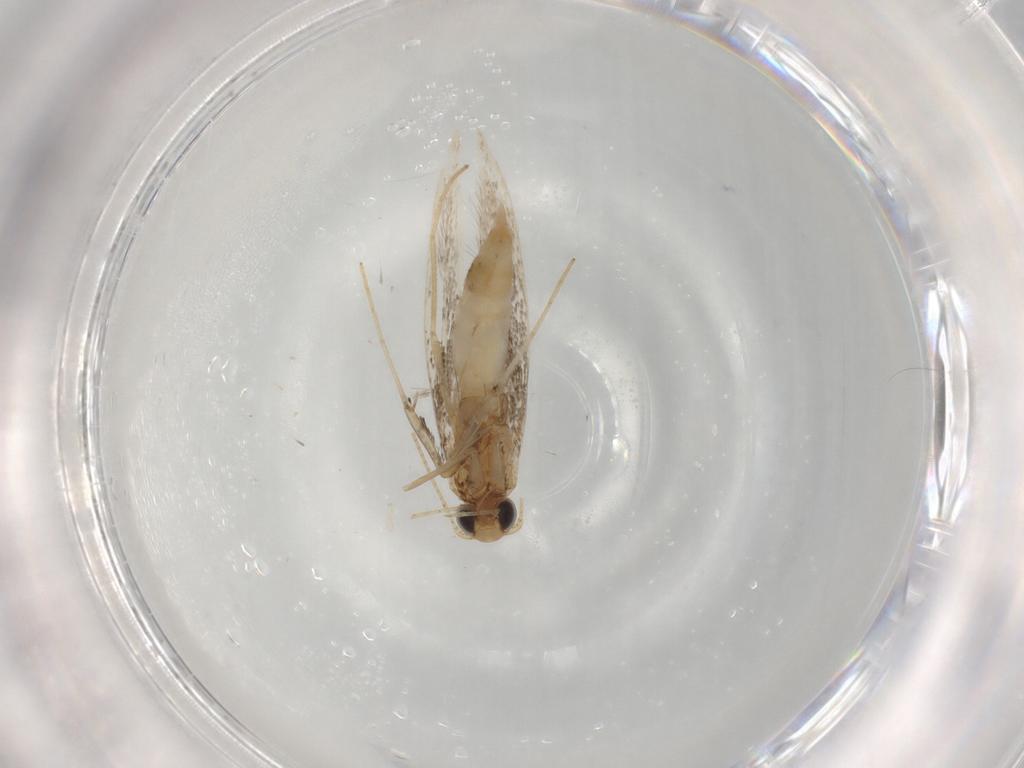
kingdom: Animalia
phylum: Arthropoda
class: Insecta
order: Lepidoptera
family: Gracillariidae
